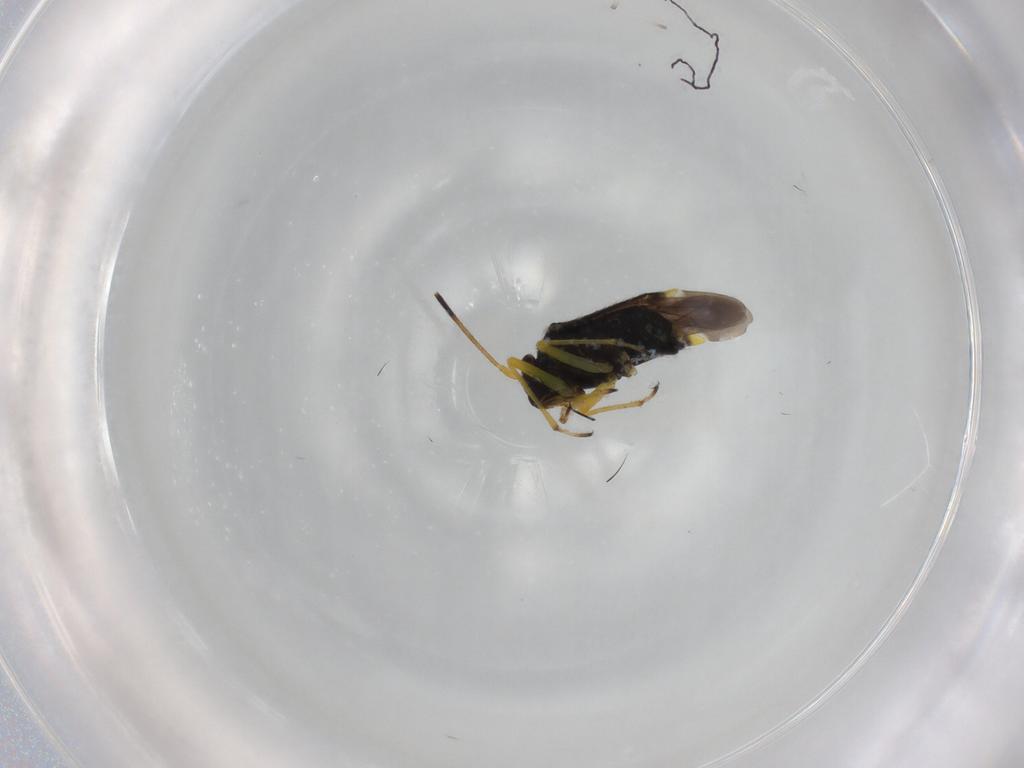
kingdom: Animalia
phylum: Arthropoda
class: Insecta
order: Hemiptera
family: Miridae
